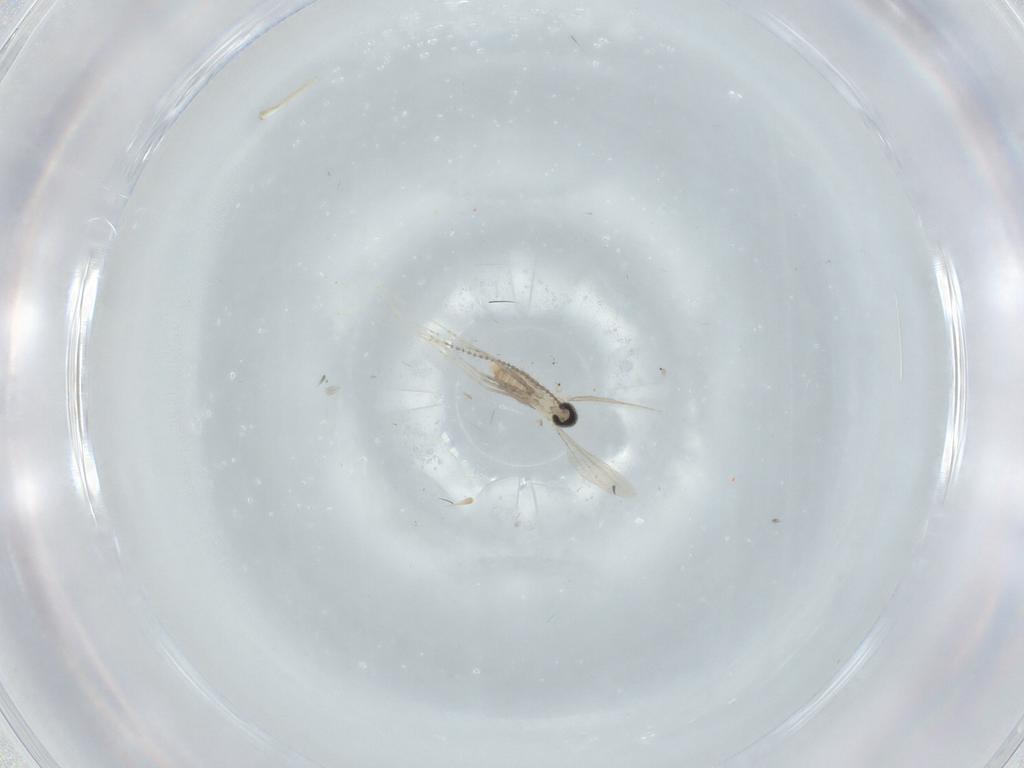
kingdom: Animalia
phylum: Arthropoda
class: Insecta
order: Diptera
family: Cecidomyiidae
